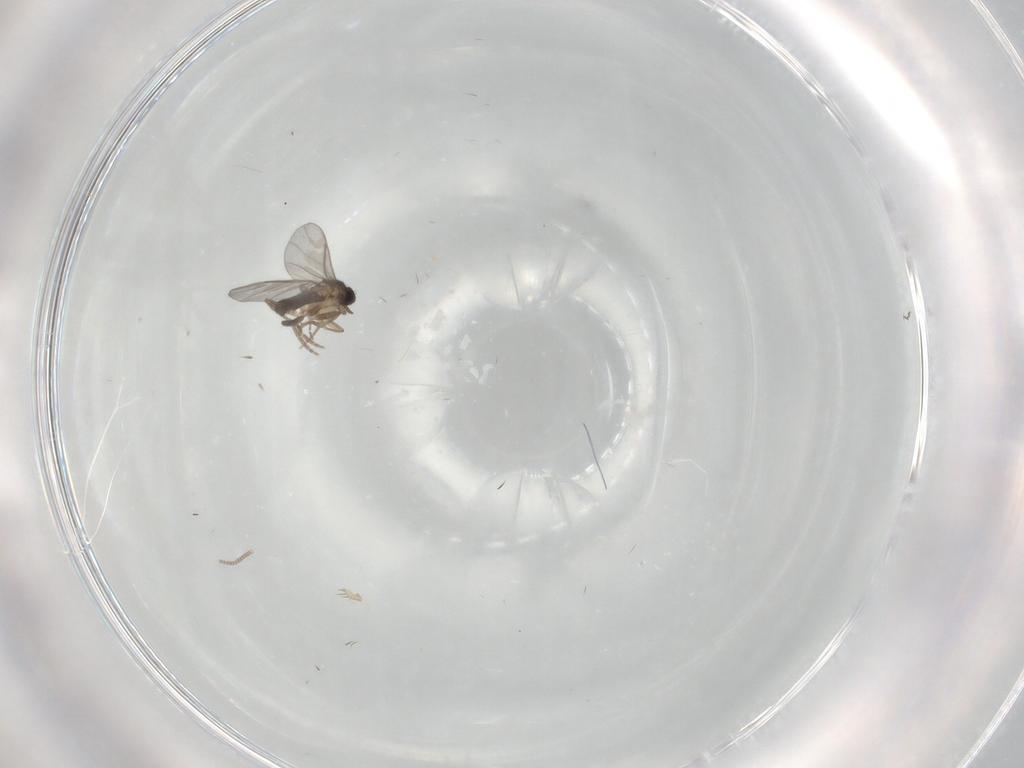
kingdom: Animalia
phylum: Arthropoda
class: Insecta
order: Diptera
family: Cecidomyiidae
